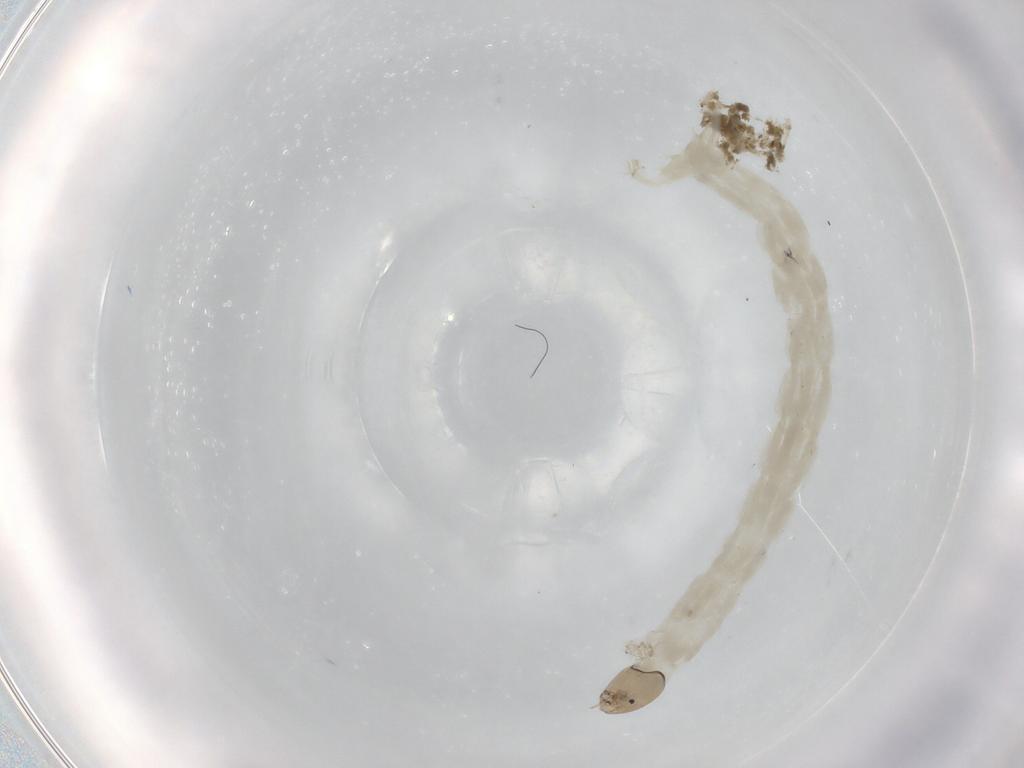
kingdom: Animalia
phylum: Arthropoda
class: Insecta
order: Diptera
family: Chironomidae
